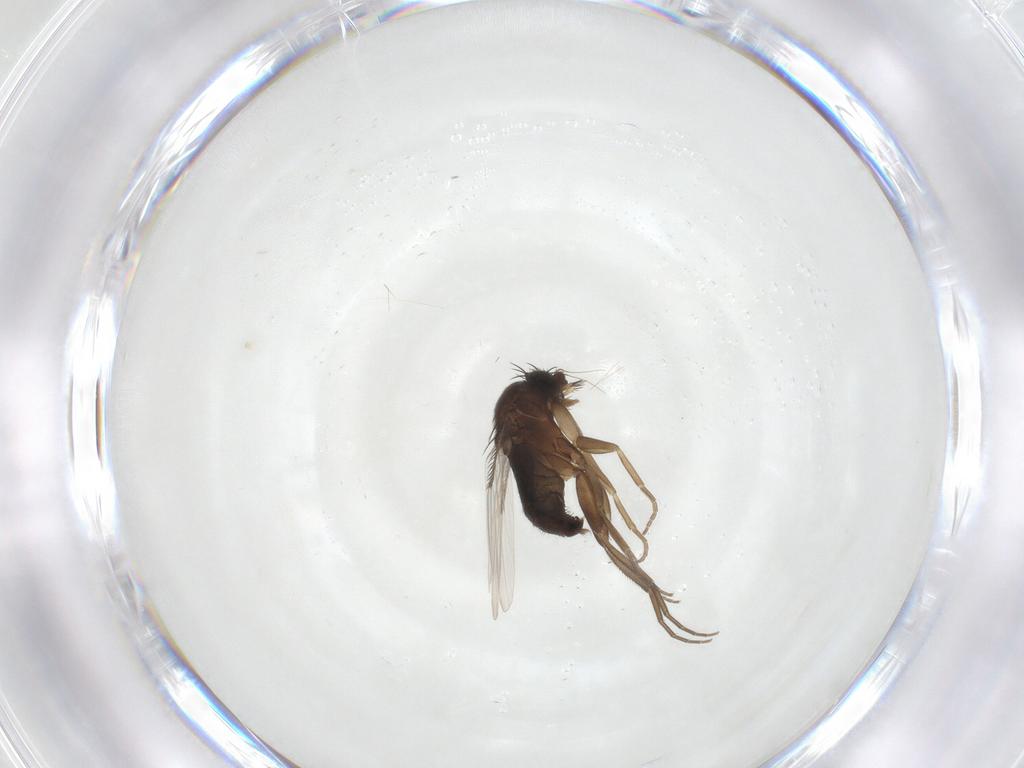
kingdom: Animalia
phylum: Arthropoda
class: Insecta
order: Diptera
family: Phoridae
